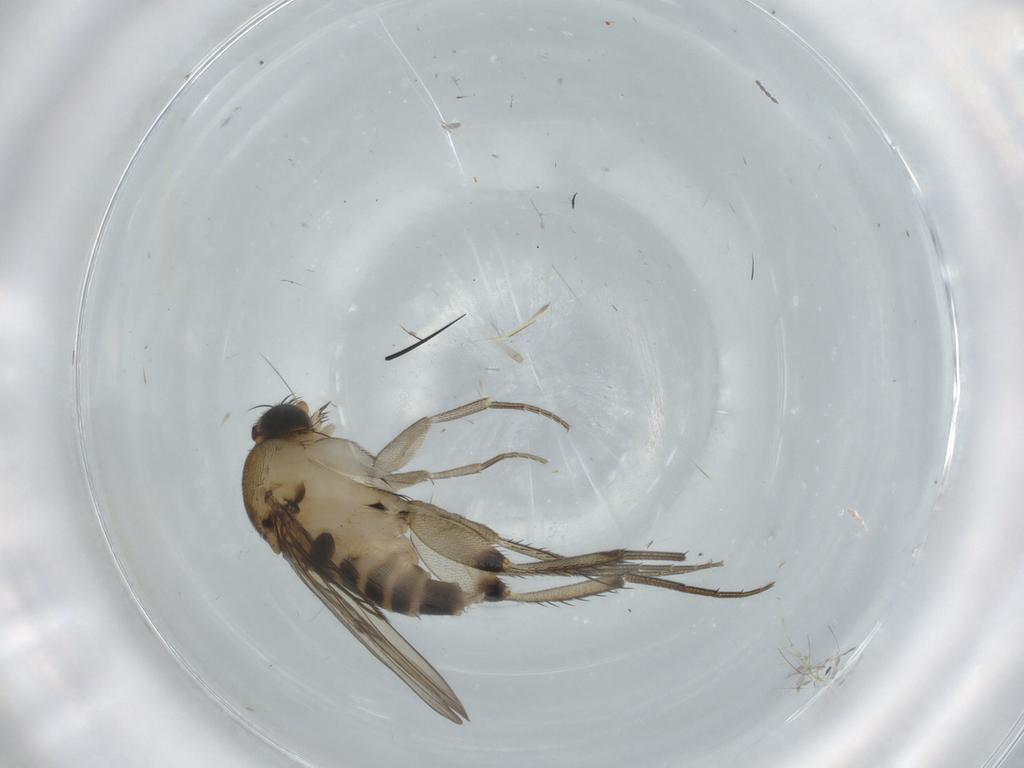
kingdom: Animalia
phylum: Arthropoda
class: Insecta
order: Diptera
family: Phoridae
